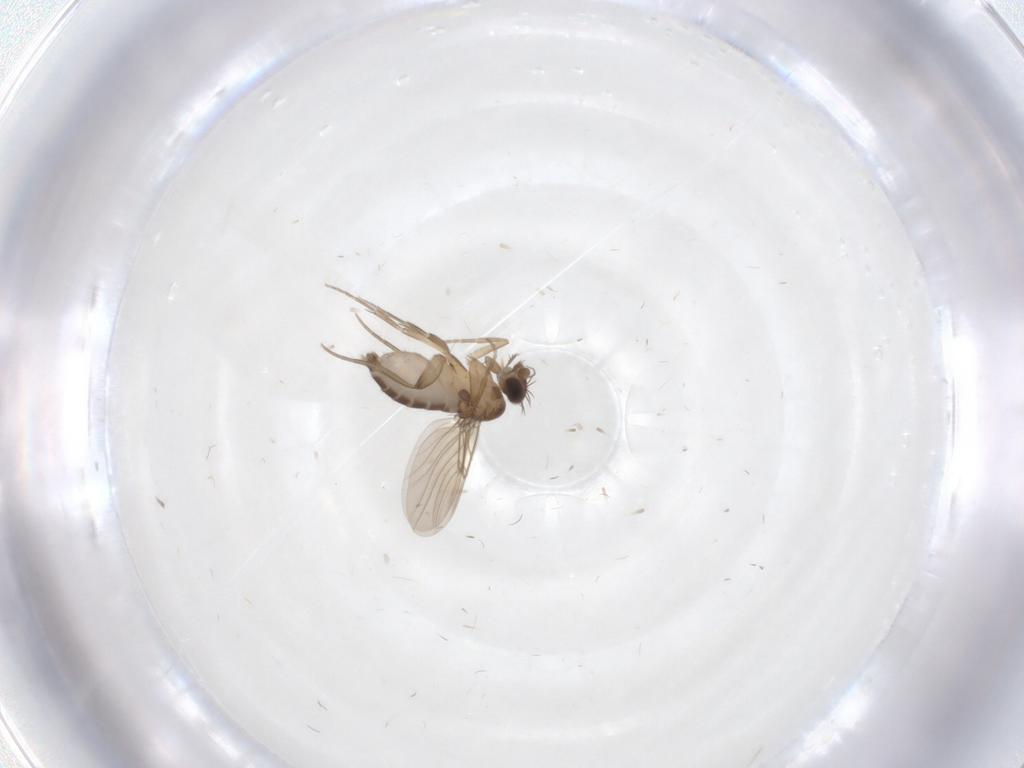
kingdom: Animalia
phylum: Arthropoda
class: Insecta
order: Diptera
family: Phoridae
